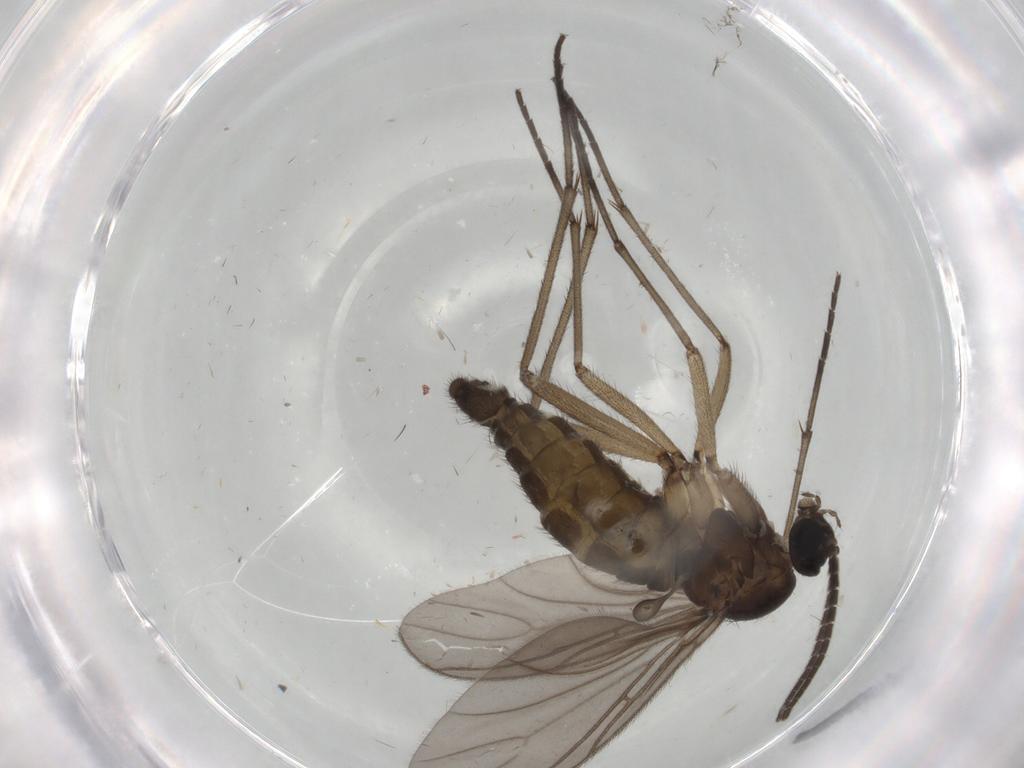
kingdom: Animalia
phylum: Arthropoda
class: Insecta
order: Diptera
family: Sciaridae
